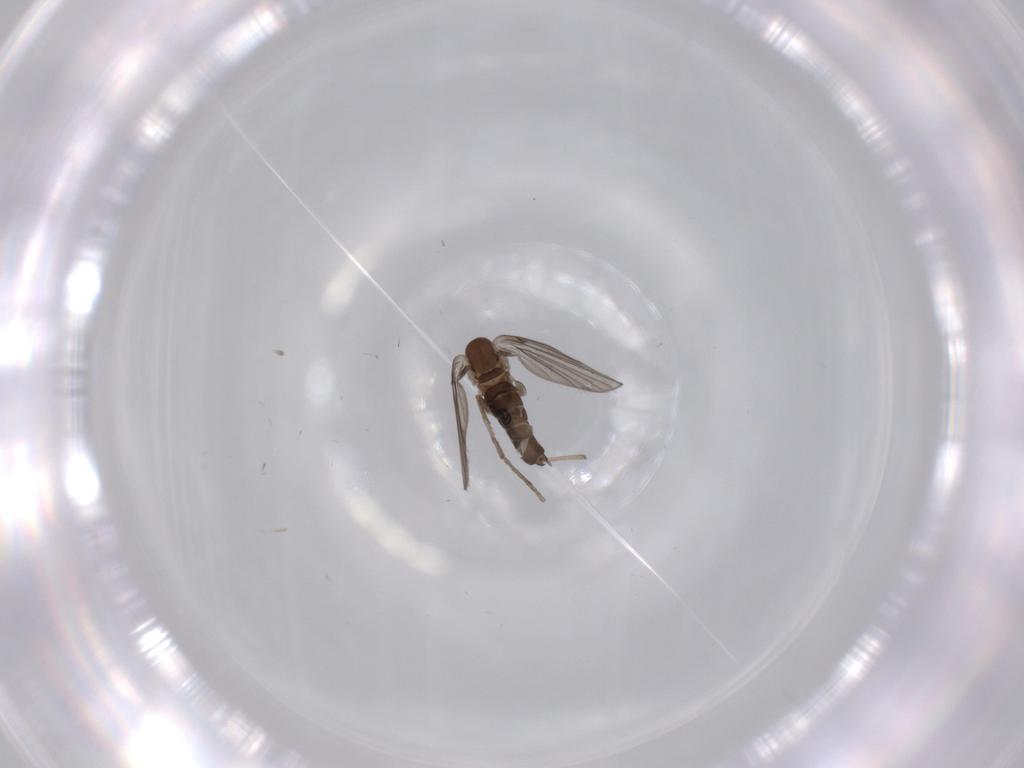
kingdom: Animalia
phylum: Arthropoda
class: Insecta
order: Diptera
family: Psychodidae
